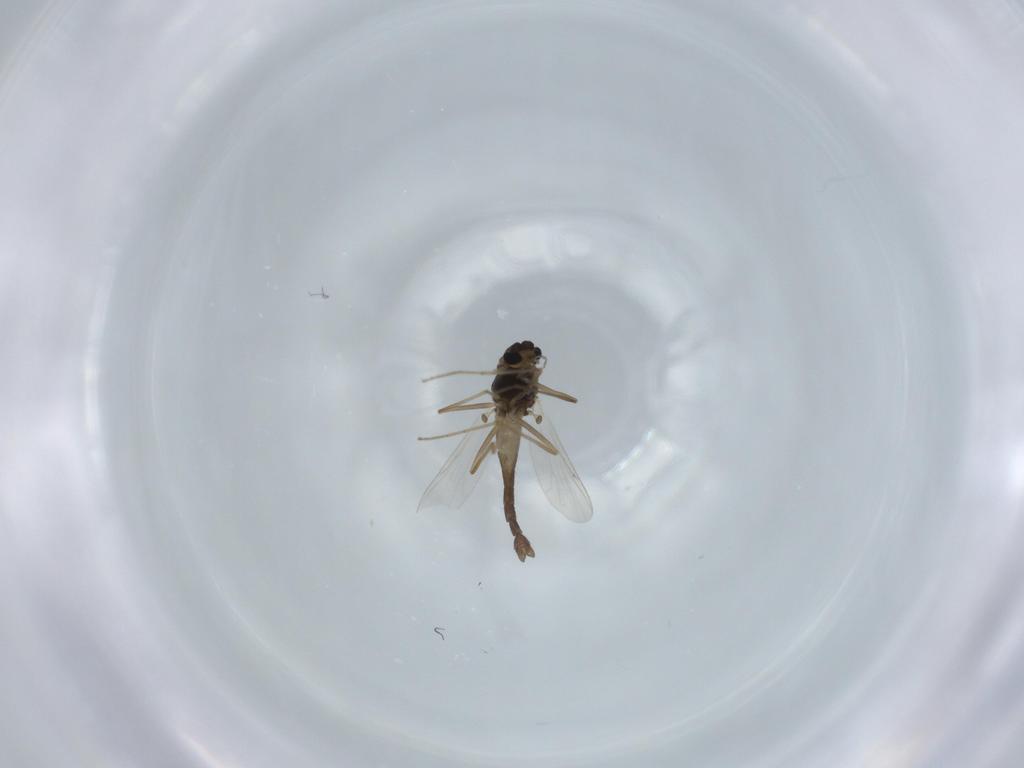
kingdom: Animalia
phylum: Arthropoda
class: Insecta
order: Diptera
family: Chironomidae
